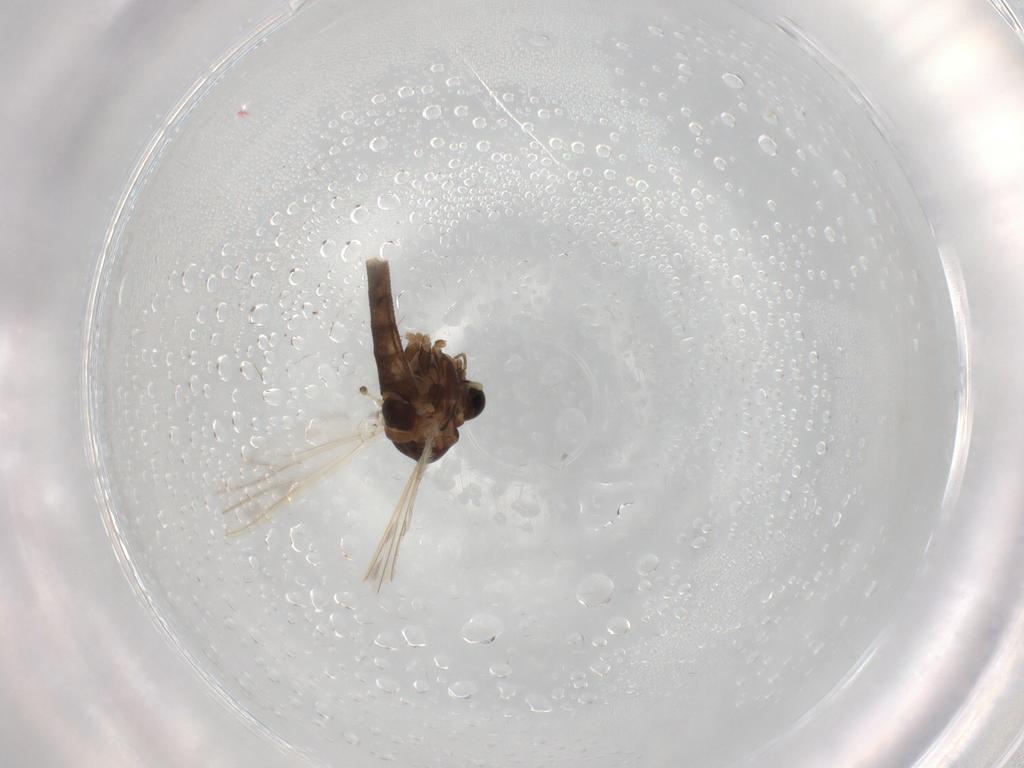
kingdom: Animalia
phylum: Arthropoda
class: Insecta
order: Diptera
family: Chironomidae
